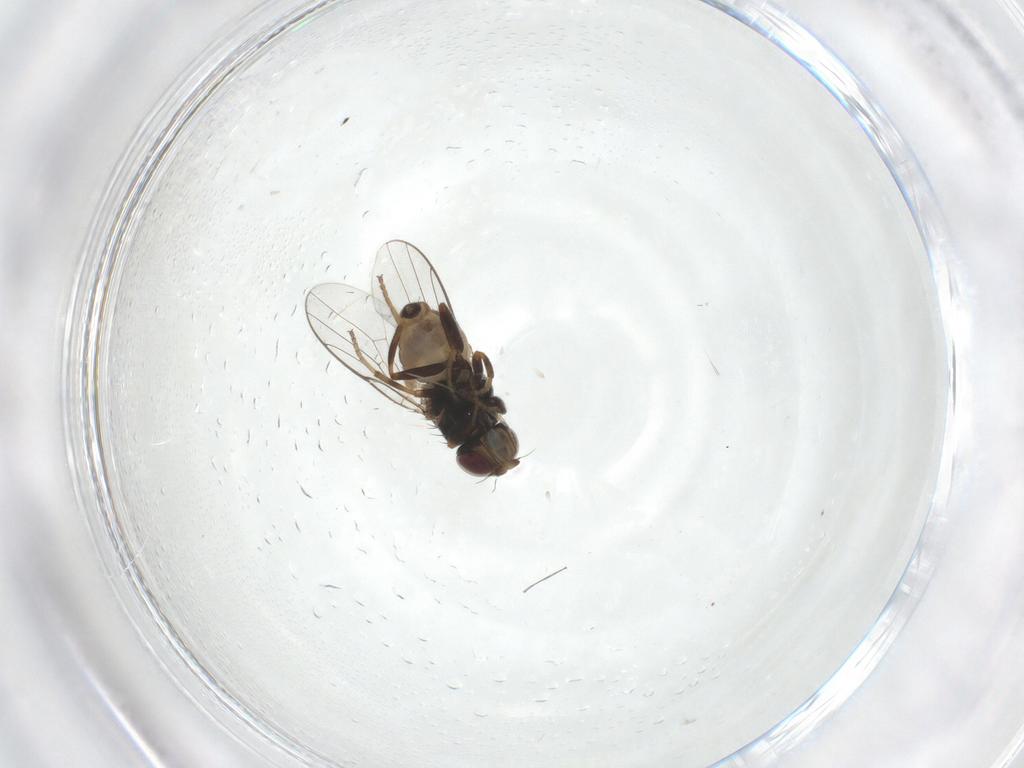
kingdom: Animalia
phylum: Arthropoda
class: Insecta
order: Diptera
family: Chloropidae
